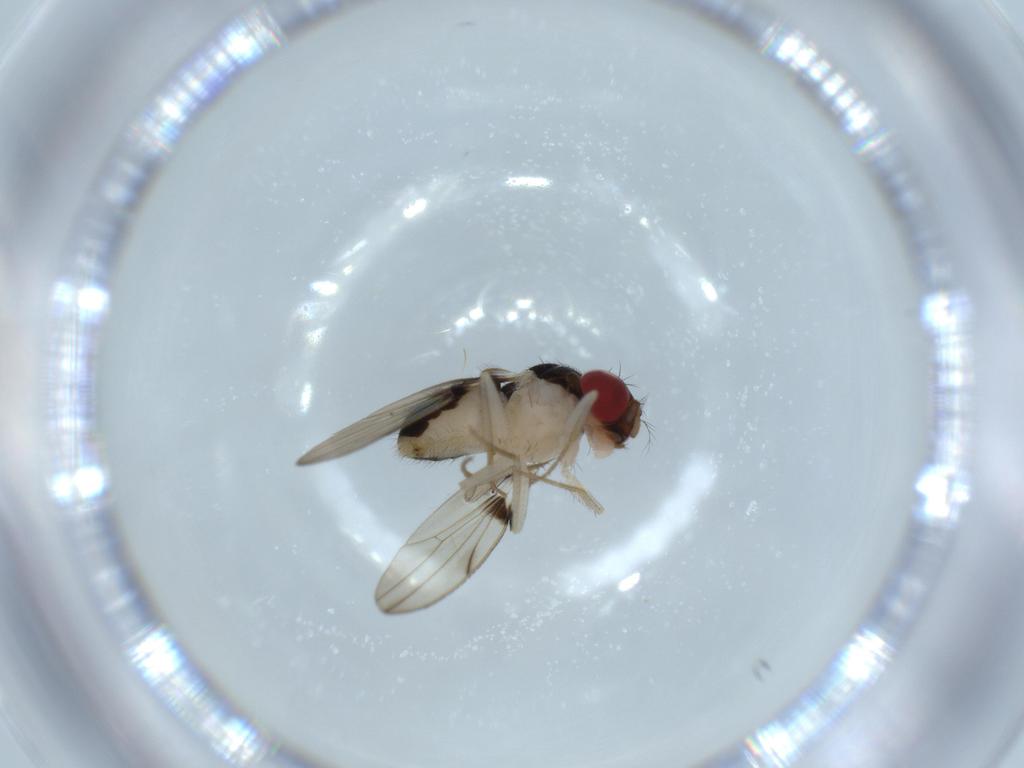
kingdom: Animalia
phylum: Arthropoda
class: Insecta
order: Diptera
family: Drosophilidae
